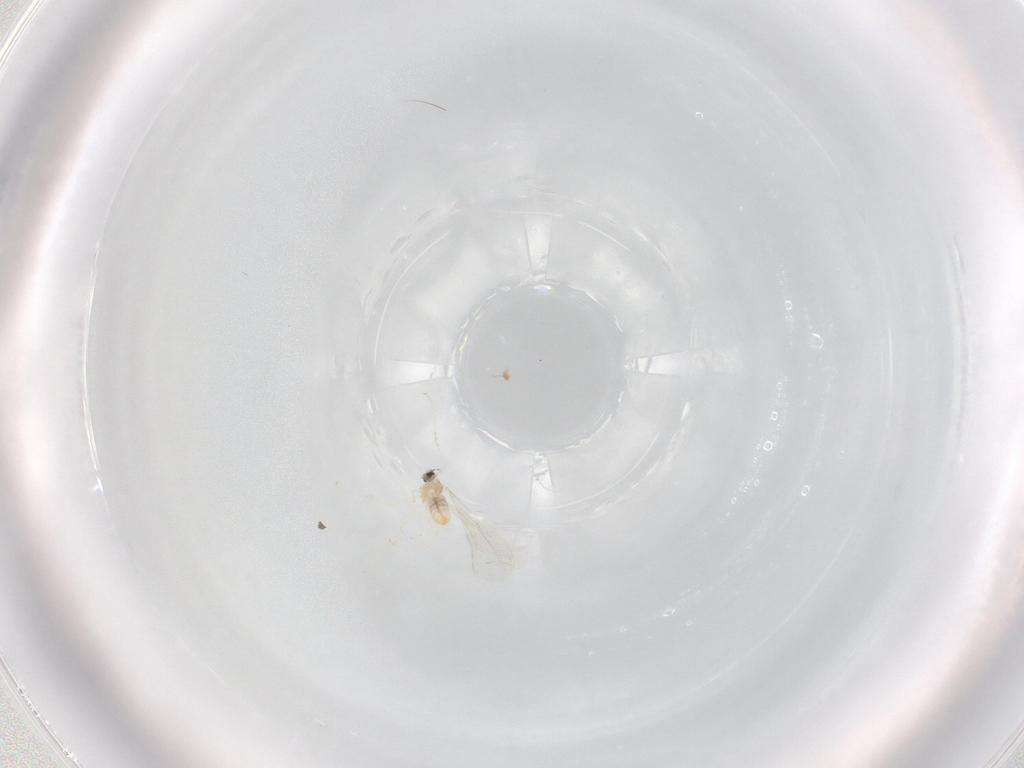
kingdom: Animalia
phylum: Arthropoda
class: Insecta
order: Diptera
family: Cecidomyiidae
